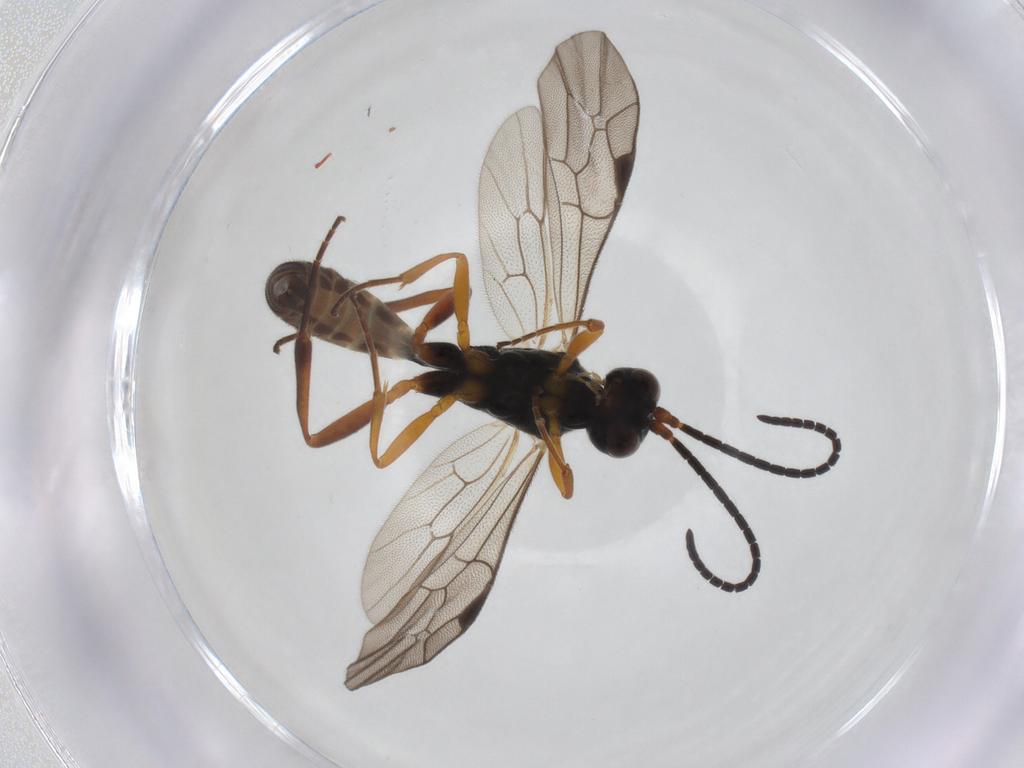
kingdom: Animalia
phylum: Arthropoda
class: Insecta
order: Hymenoptera
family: Ichneumonidae
